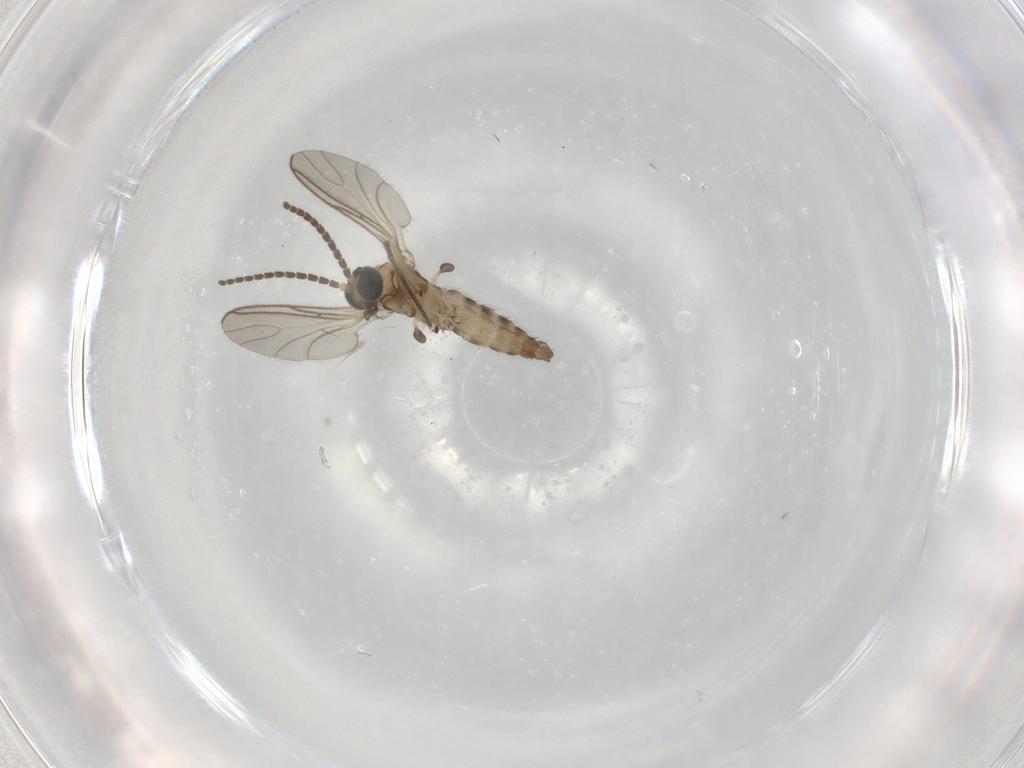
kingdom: Animalia
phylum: Arthropoda
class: Insecta
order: Diptera
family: Sciaridae
